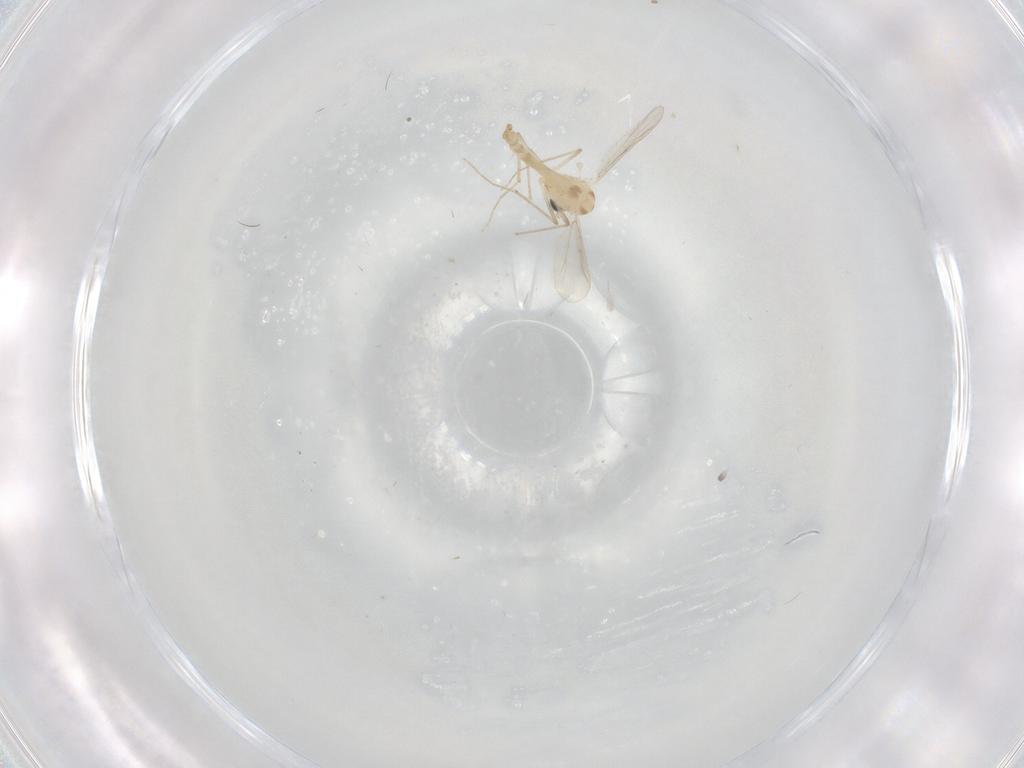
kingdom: Animalia
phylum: Arthropoda
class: Insecta
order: Diptera
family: Chironomidae
